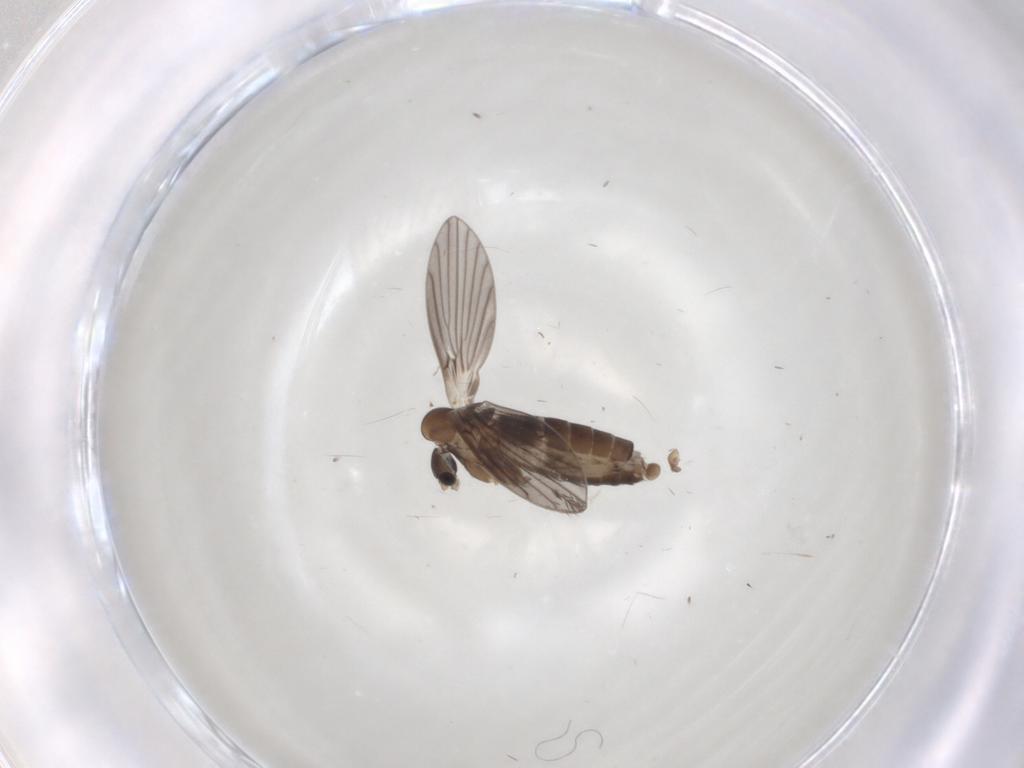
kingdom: Animalia
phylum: Arthropoda
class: Insecta
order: Diptera
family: Cecidomyiidae
